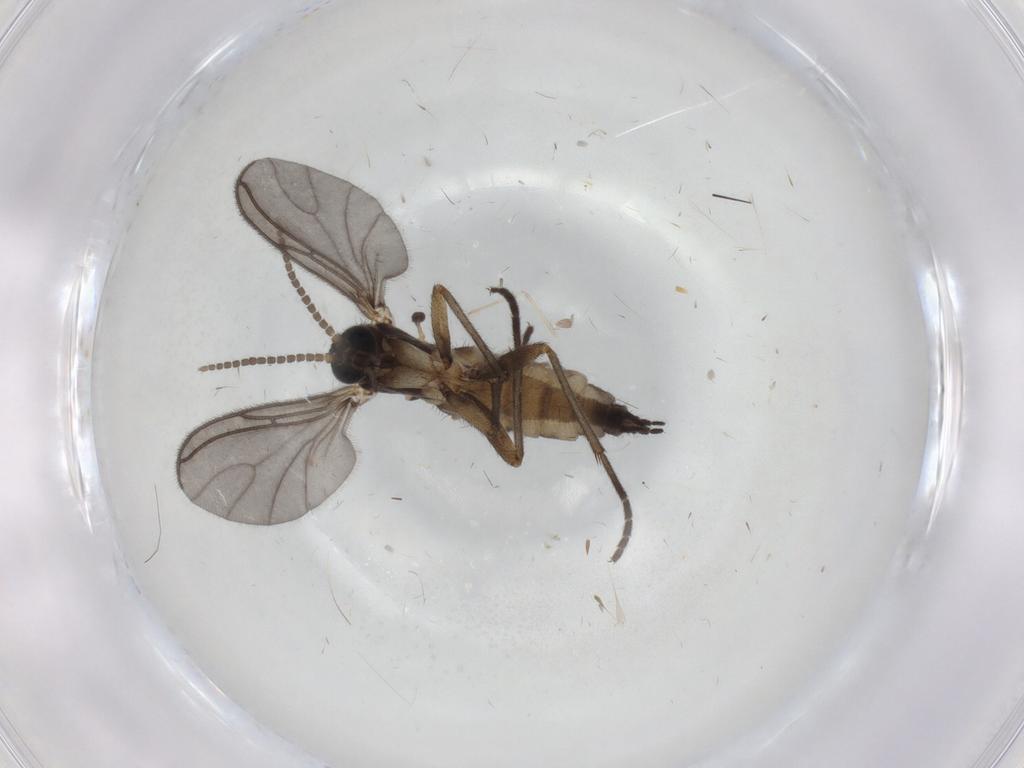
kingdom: Animalia
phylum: Arthropoda
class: Insecta
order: Diptera
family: Sciaridae
